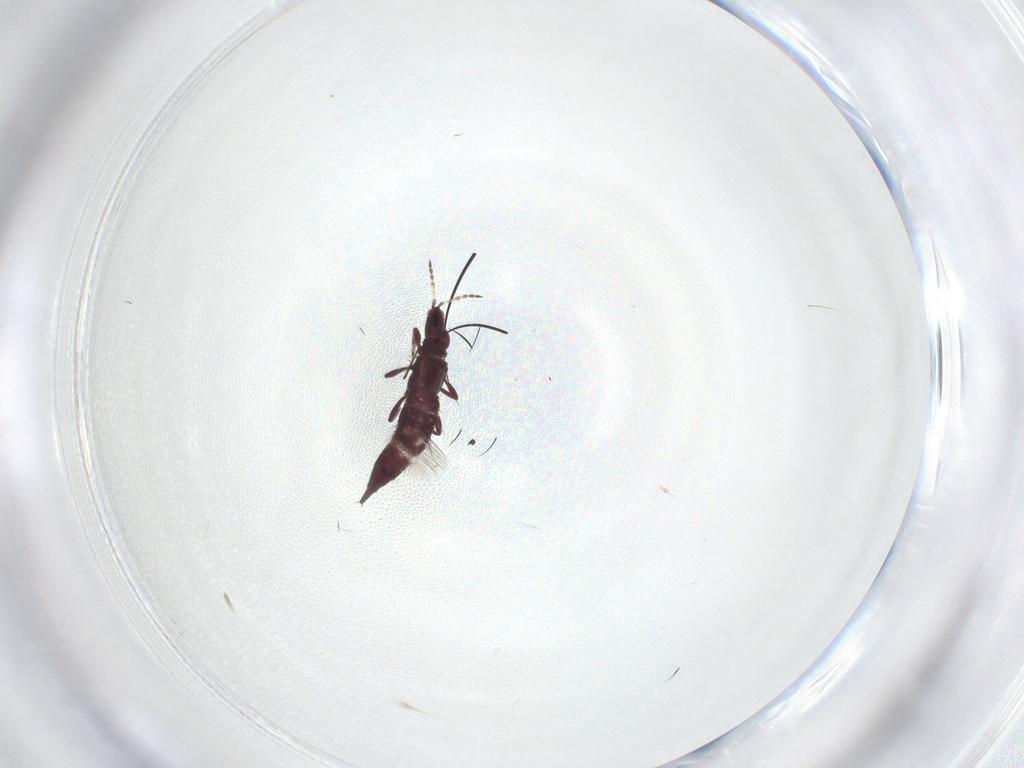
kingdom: Animalia
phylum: Arthropoda
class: Insecta
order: Thysanoptera
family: Phlaeothripidae
